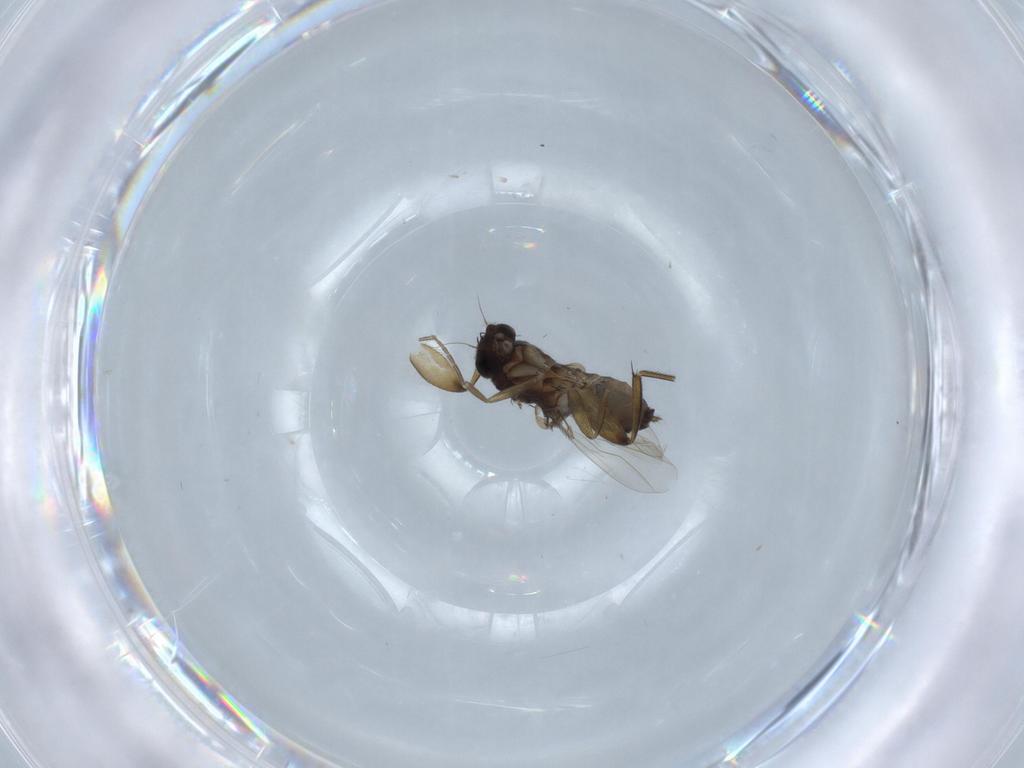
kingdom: Animalia
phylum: Arthropoda
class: Insecta
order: Diptera
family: Phoridae
